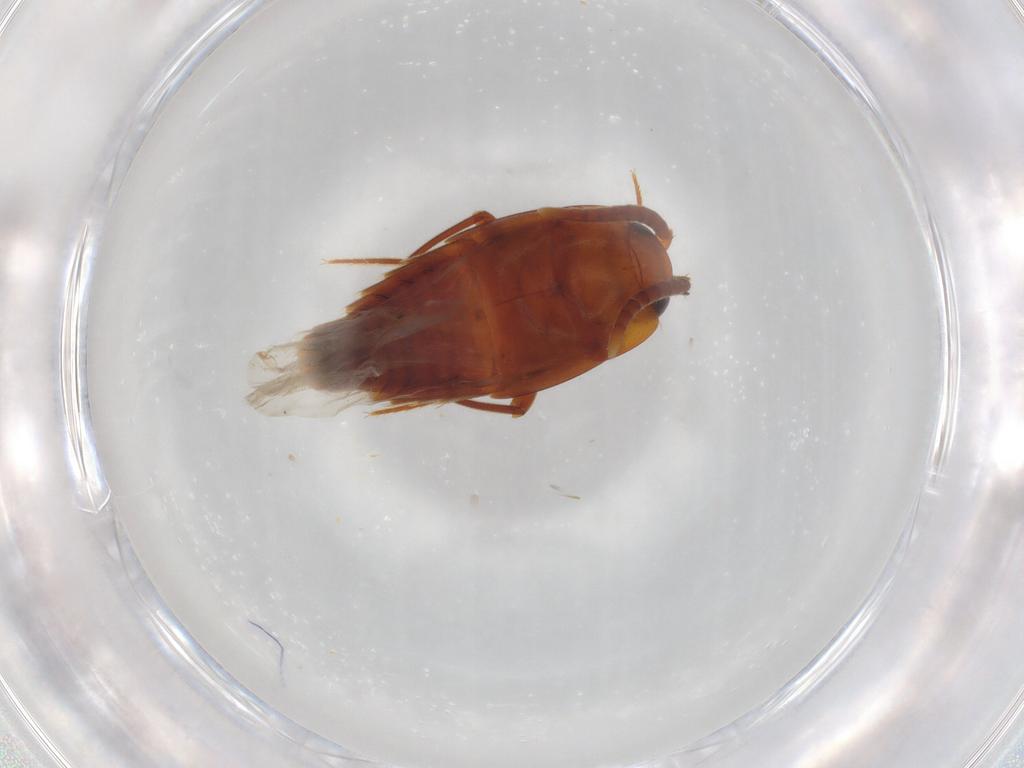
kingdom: Animalia
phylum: Arthropoda
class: Insecta
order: Coleoptera
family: Staphylinidae
